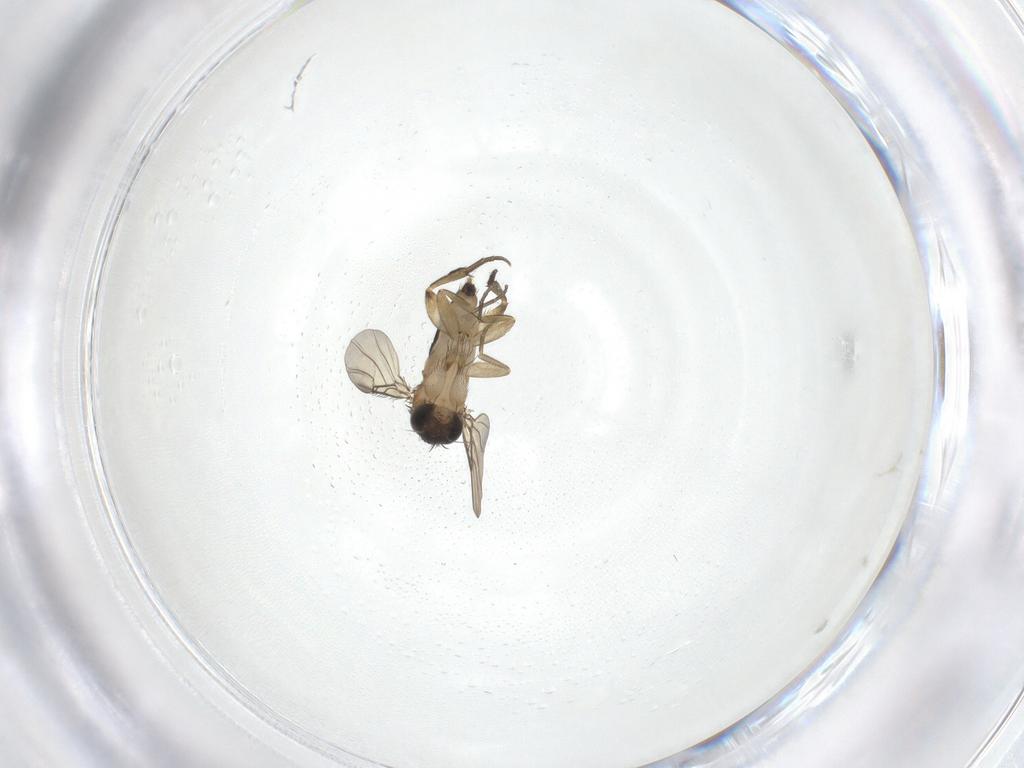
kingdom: Animalia
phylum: Arthropoda
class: Insecta
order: Diptera
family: Phoridae
